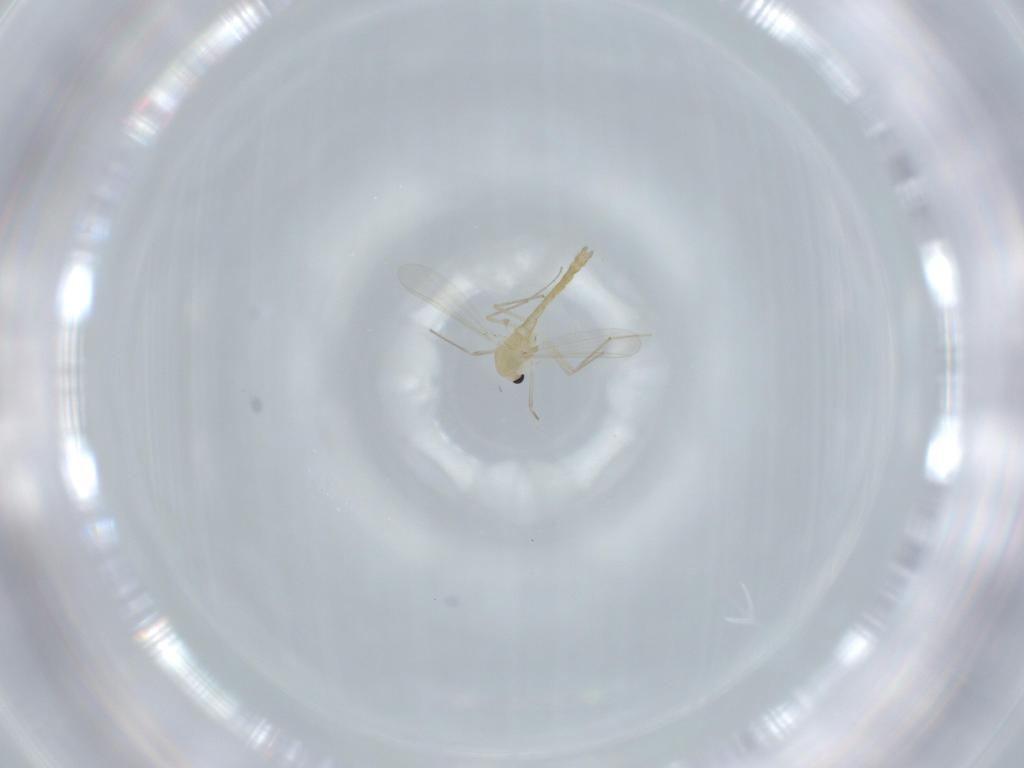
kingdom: Animalia
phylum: Arthropoda
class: Insecta
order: Diptera
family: Chironomidae
